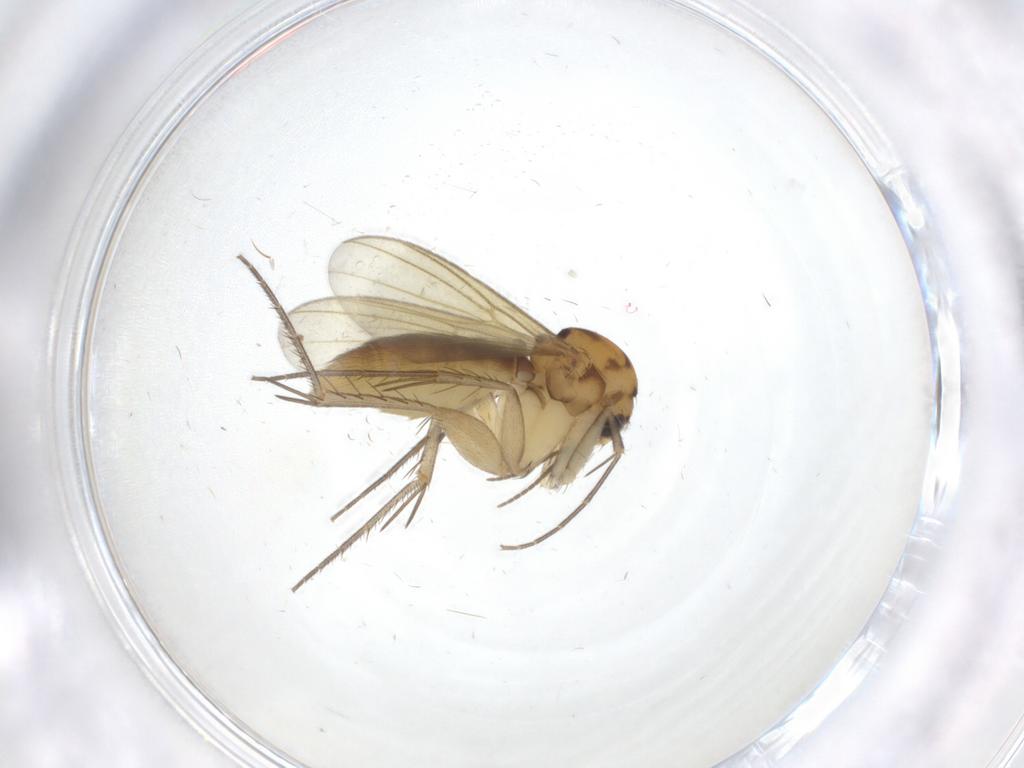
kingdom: Animalia
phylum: Arthropoda
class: Insecta
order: Diptera
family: Mycetophilidae
